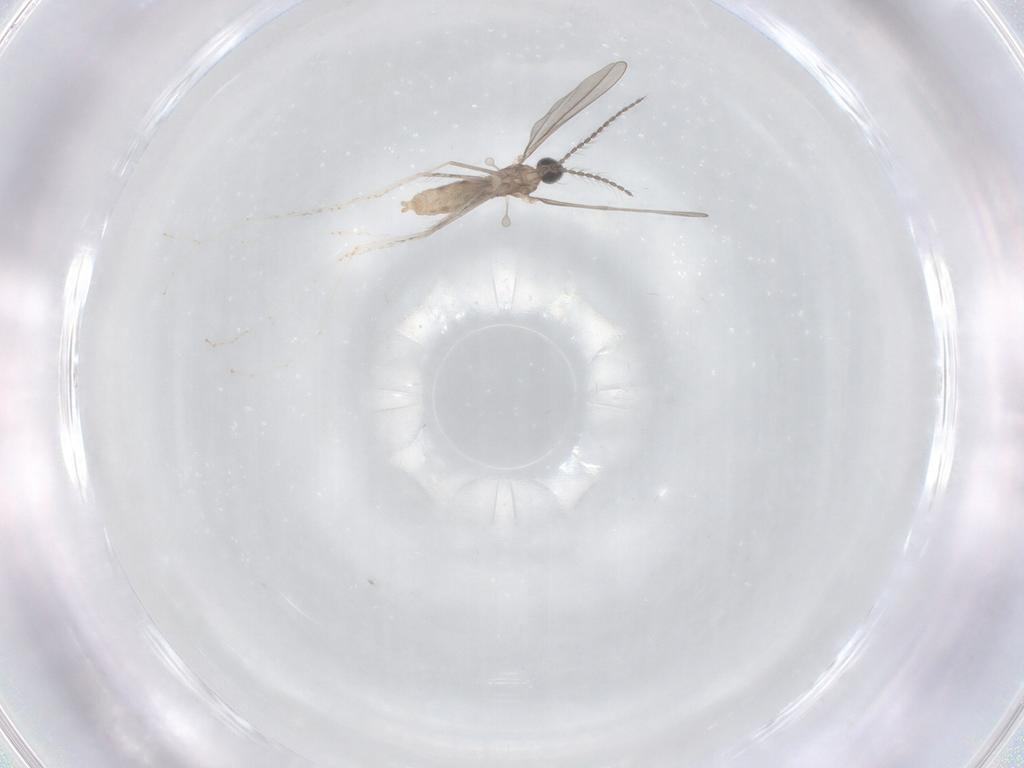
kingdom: Animalia
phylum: Arthropoda
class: Insecta
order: Diptera
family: Cecidomyiidae
